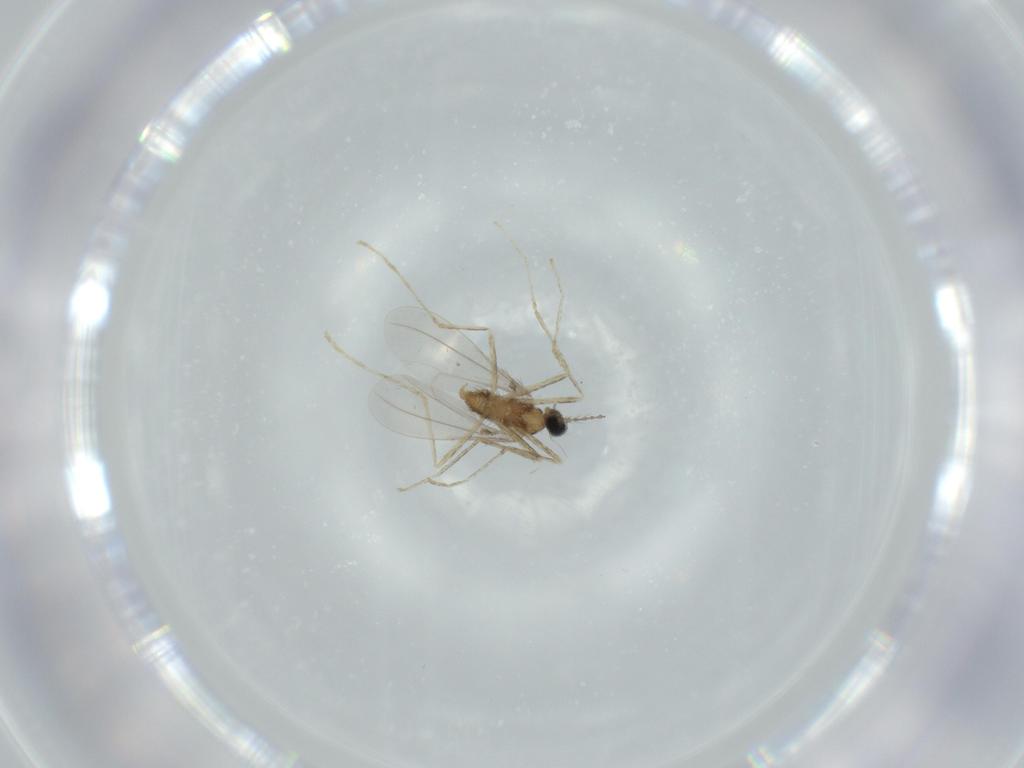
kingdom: Animalia
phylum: Arthropoda
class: Insecta
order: Diptera
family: Cecidomyiidae
